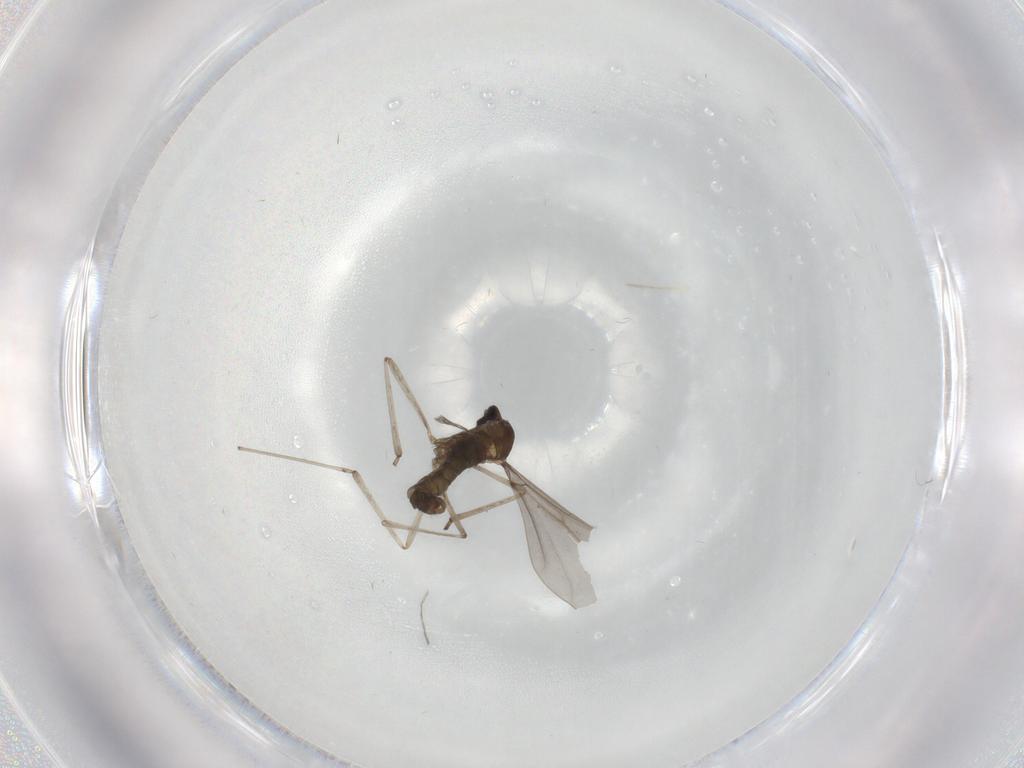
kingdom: Animalia
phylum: Arthropoda
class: Insecta
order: Diptera
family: Cecidomyiidae
